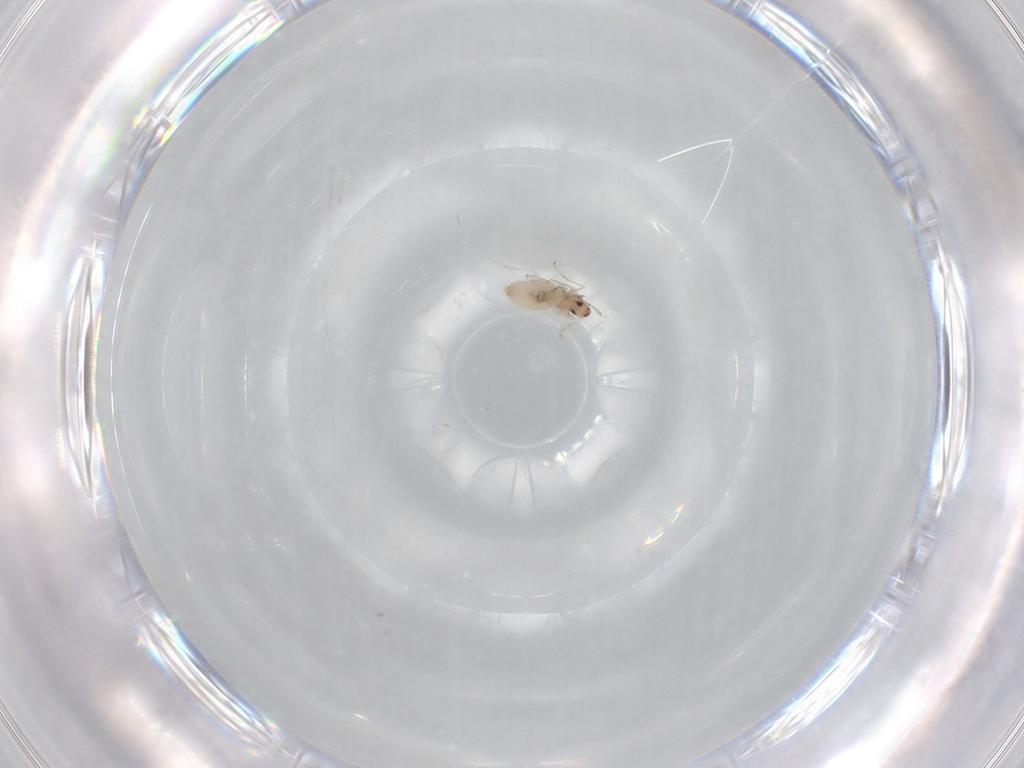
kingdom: Animalia
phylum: Arthropoda
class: Insecta
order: Diptera
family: Chironomidae
